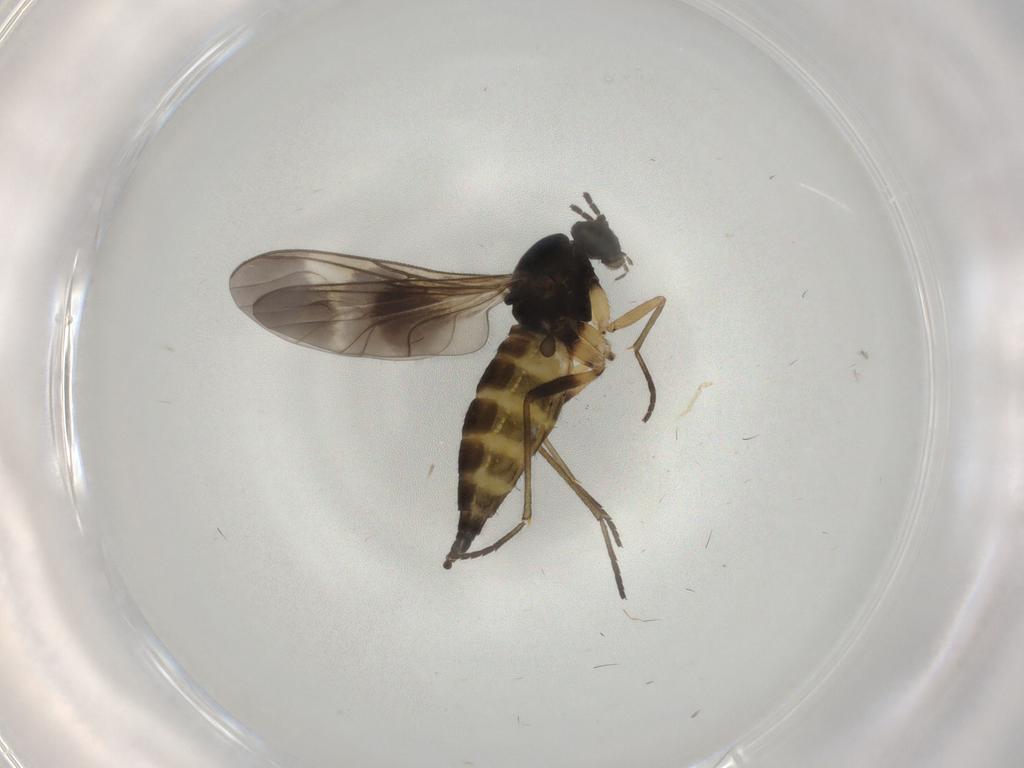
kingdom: Animalia
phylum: Arthropoda
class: Insecta
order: Diptera
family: Sciaridae
